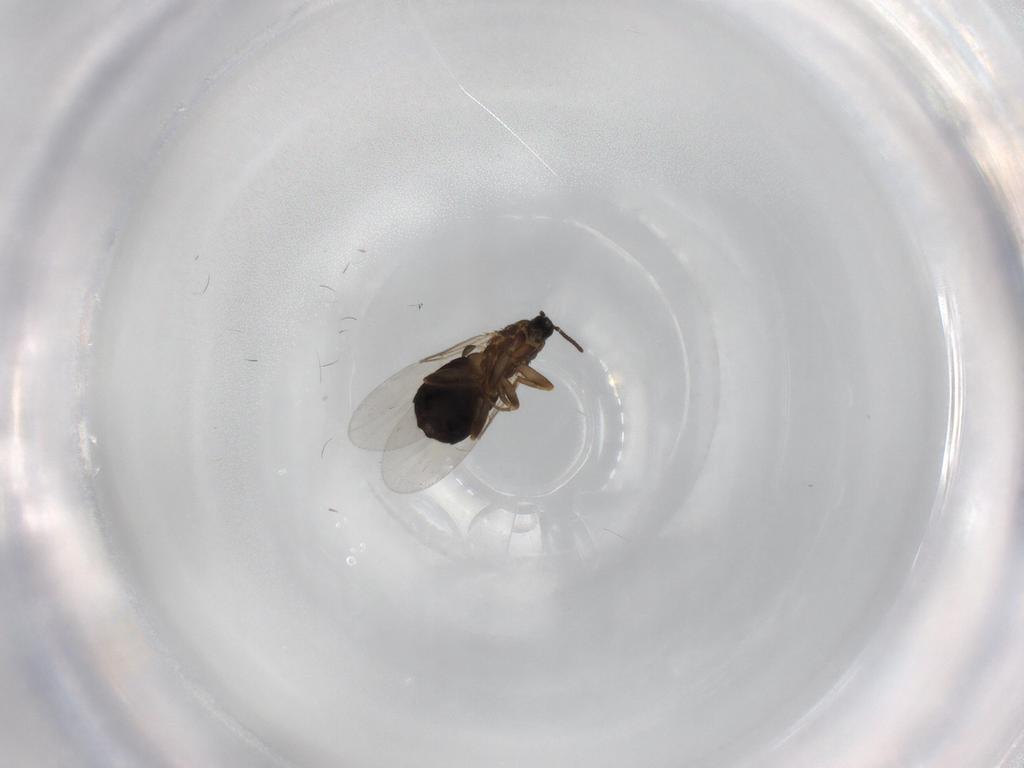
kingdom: Animalia
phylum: Arthropoda
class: Insecta
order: Diptera
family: Scatopsidae
